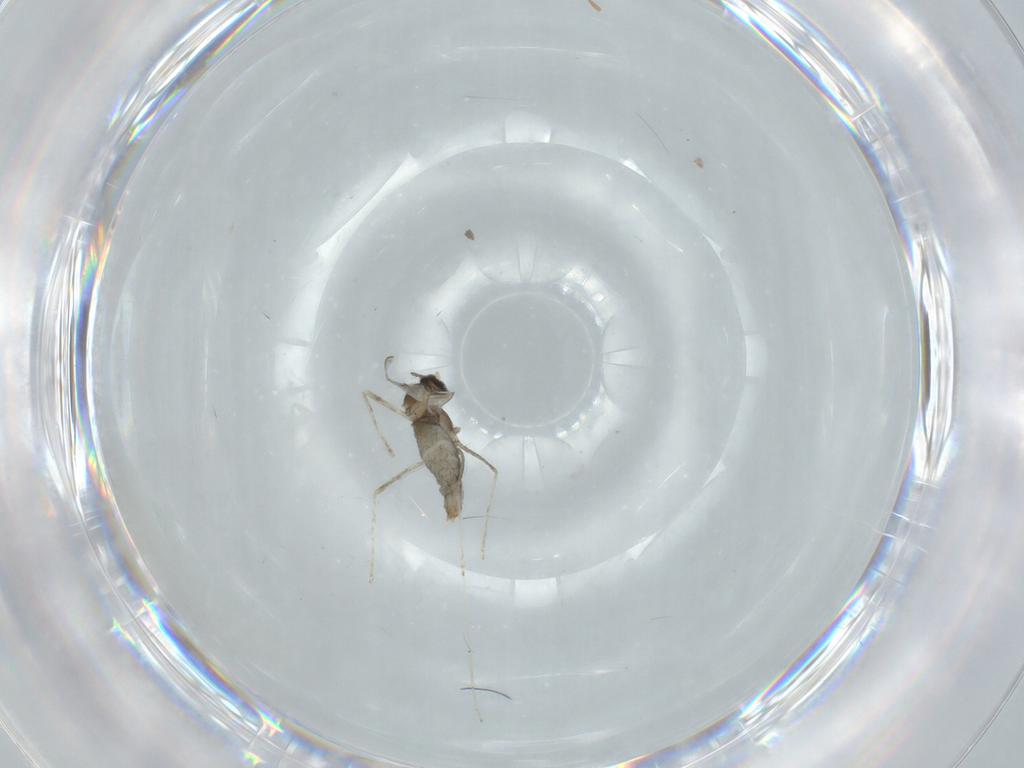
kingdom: Animalia
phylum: Arthropoda
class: Insecta
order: Diptera
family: Cecidomyiidae
